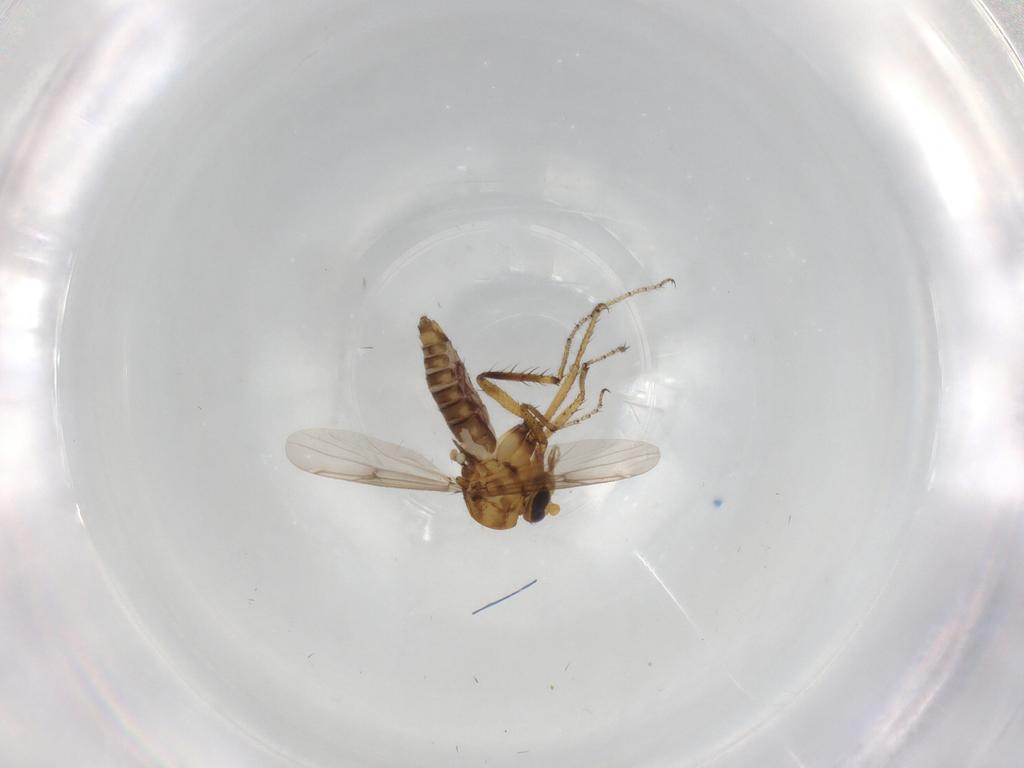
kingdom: Animalia
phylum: Arthropoda
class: Insecta
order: Diptera
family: Ceratopogonidae
